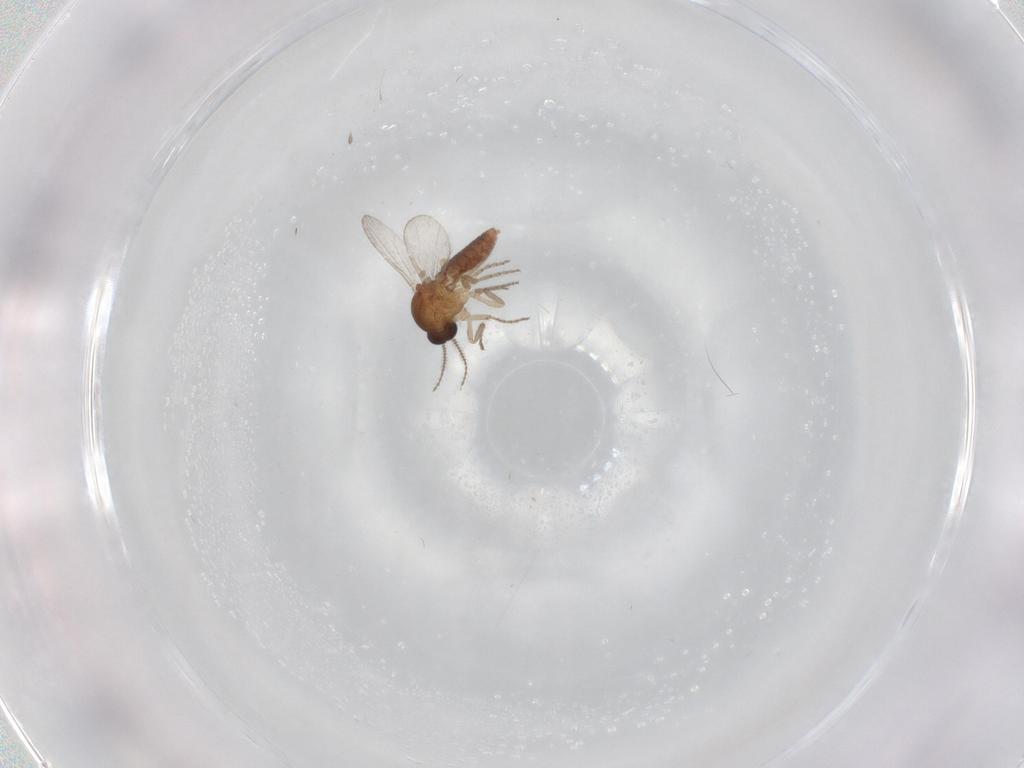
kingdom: Animalia
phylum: Arthropoda
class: Insecta
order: Diptera
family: Ceratopogonidae
